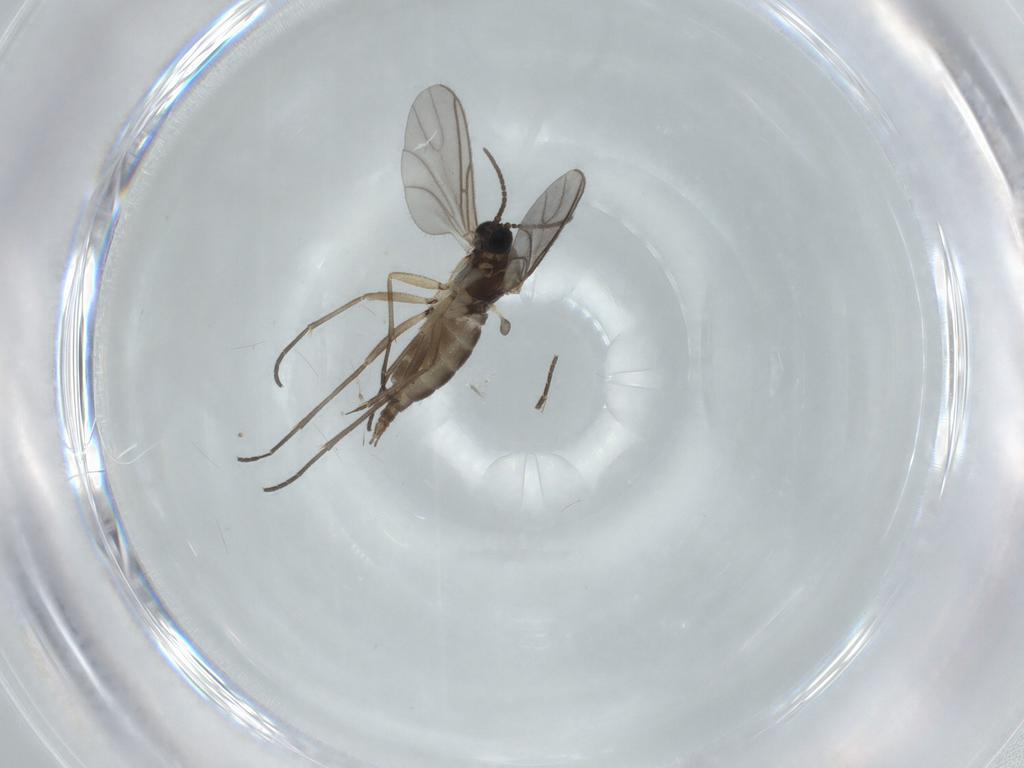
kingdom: Animalia
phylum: Arthropoda
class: Insecta
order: Diptera
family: Sciaridae
